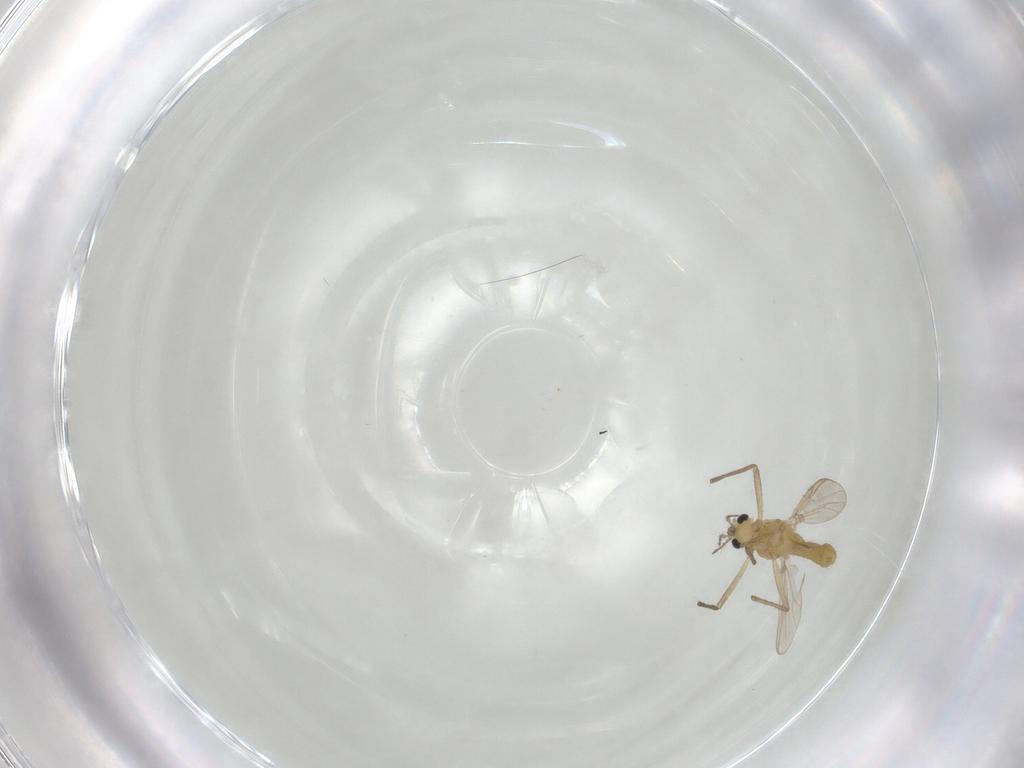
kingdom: Animalia
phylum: Arthropoda
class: Insecta
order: Diptera
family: Chironomidae
